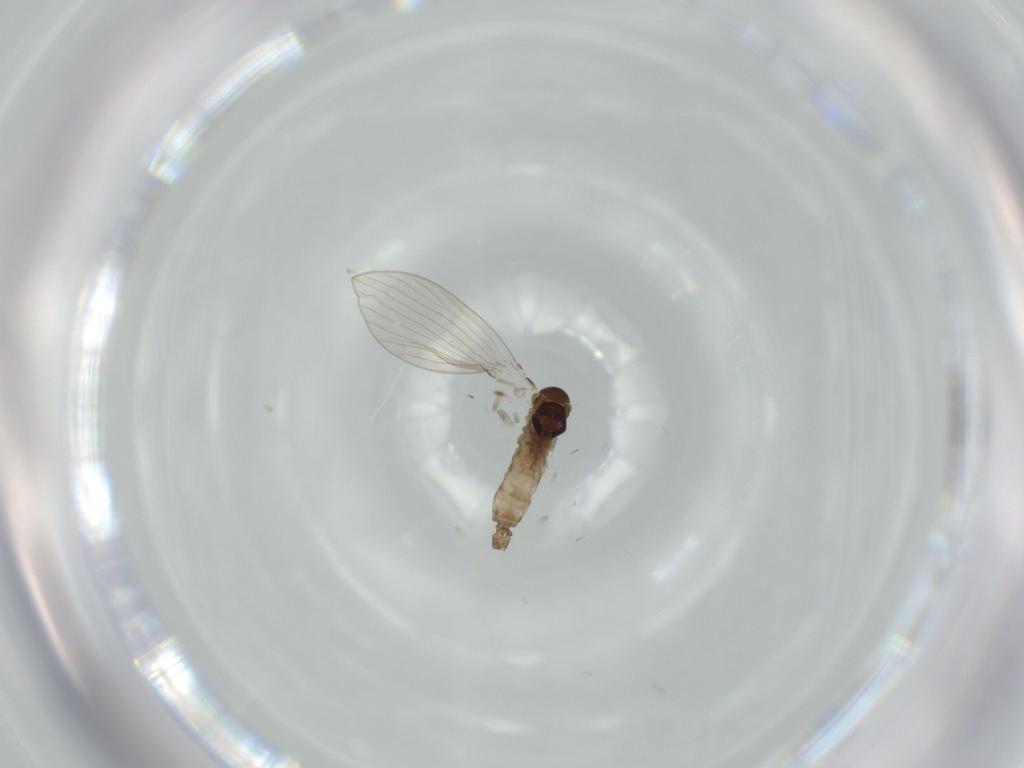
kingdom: Animalia
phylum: Arthropoda
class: Insecta
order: Diptera
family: Psychodidae
